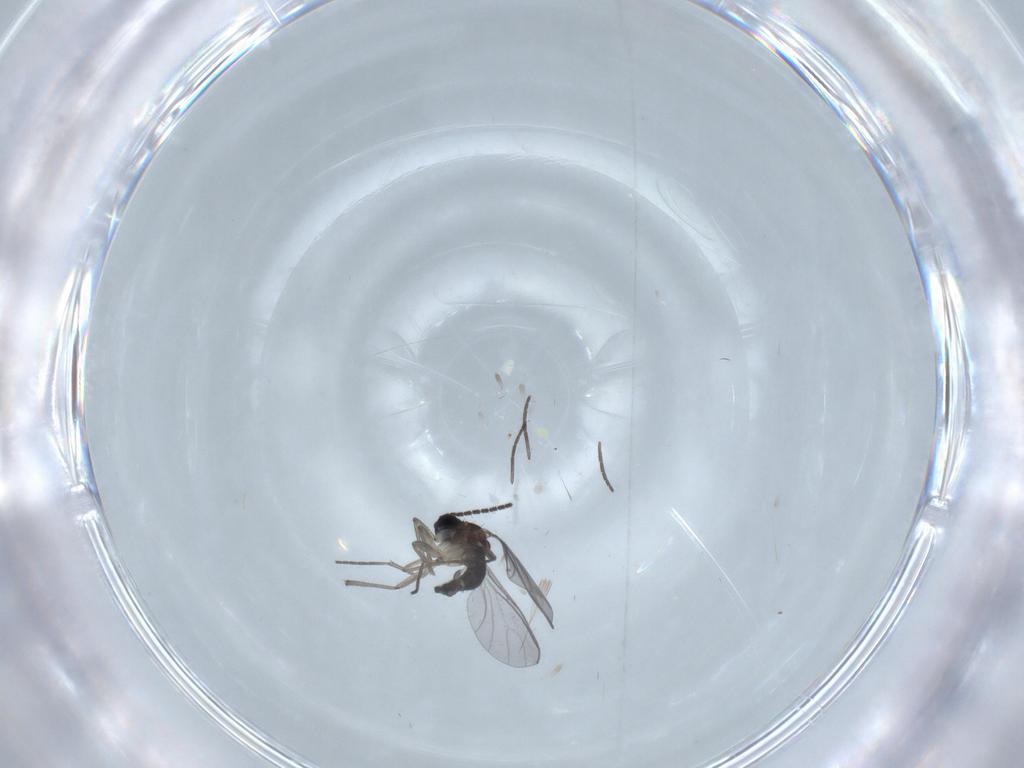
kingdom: Animalia
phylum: Arthropoda
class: Insecta
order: Diptera
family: Sciaridae
